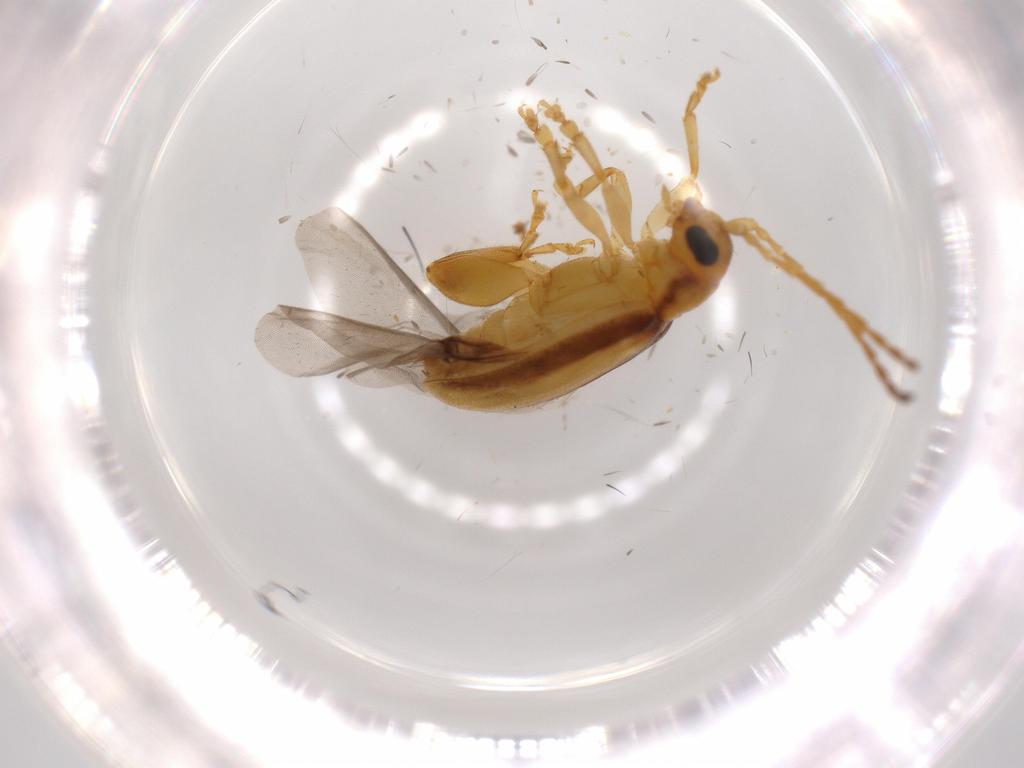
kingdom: Animalia
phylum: Arthropoda
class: Insecta
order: Coleoptera
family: Chrysomelidae
